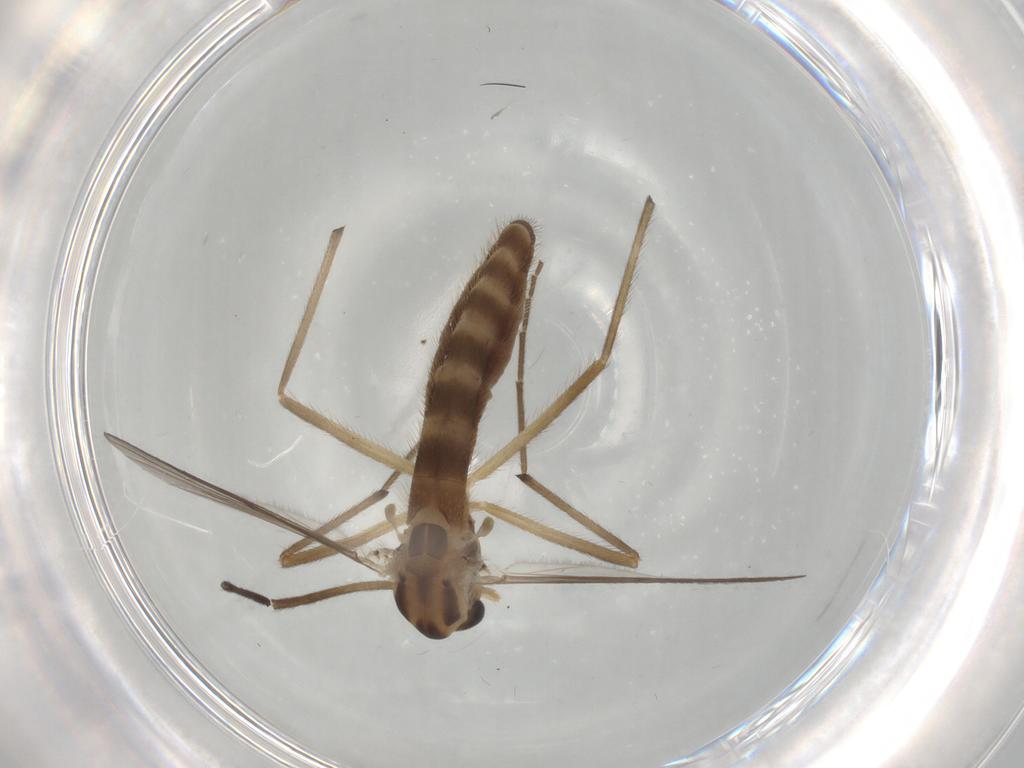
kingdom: Animalia
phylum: Arthropoda
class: Insecta
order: Diptera
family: Chironomidae
